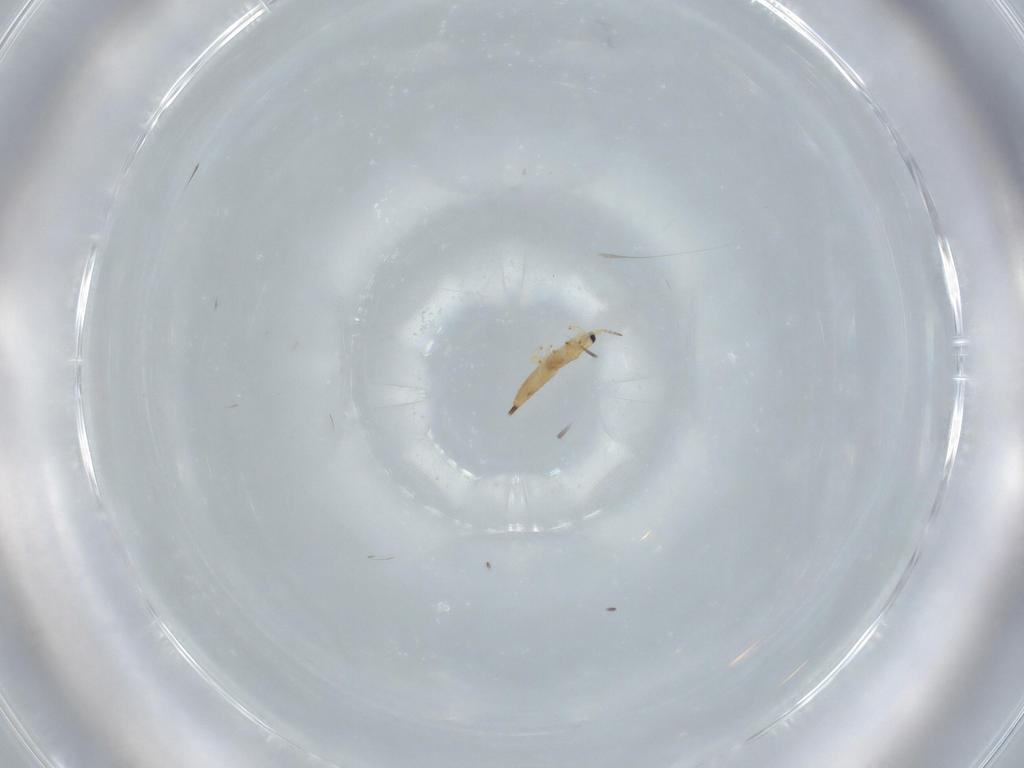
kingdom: Animalia
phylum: Arthropoda
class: Insecta
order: Thysanoptera
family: Phlaeothripidae
